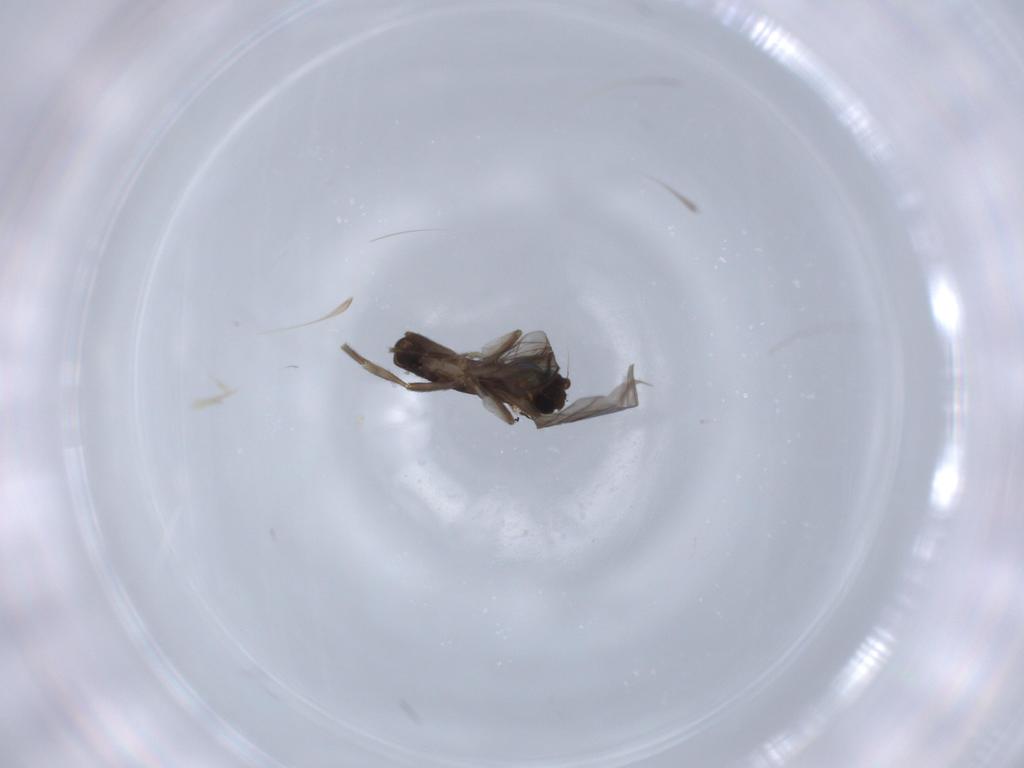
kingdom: Animalia
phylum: Arthropoda
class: Insecta
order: Diptera
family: Phoridae
